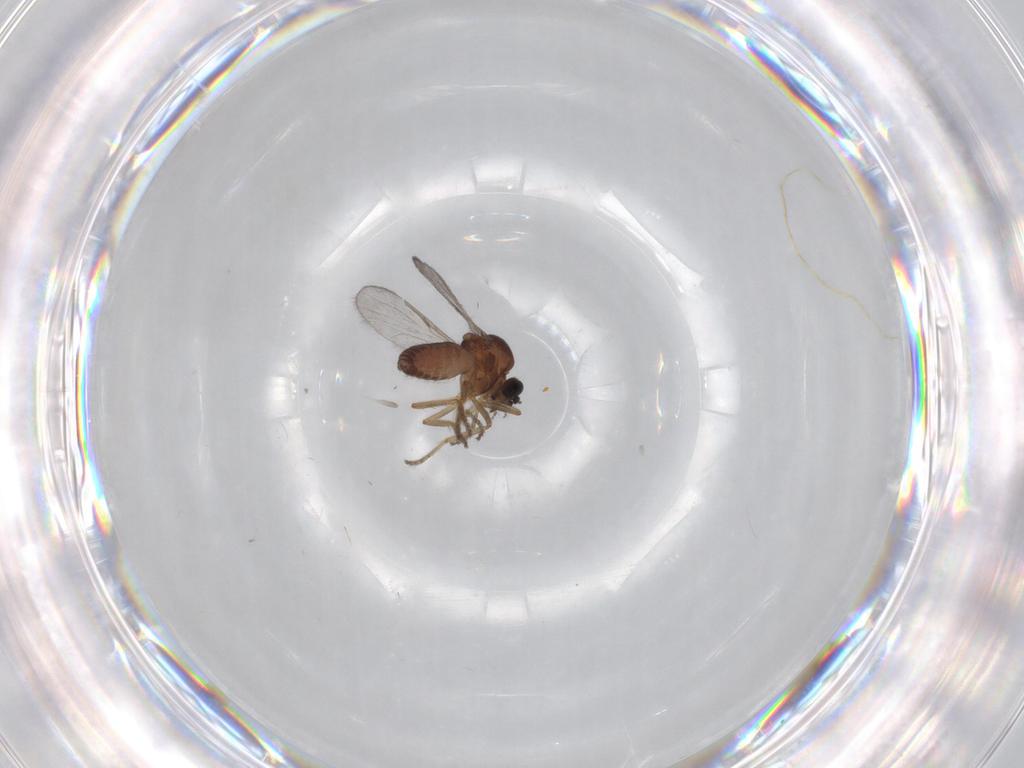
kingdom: Animalia
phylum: Arthropoda
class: Insecta
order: Diptera
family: Ceratopogonidae
